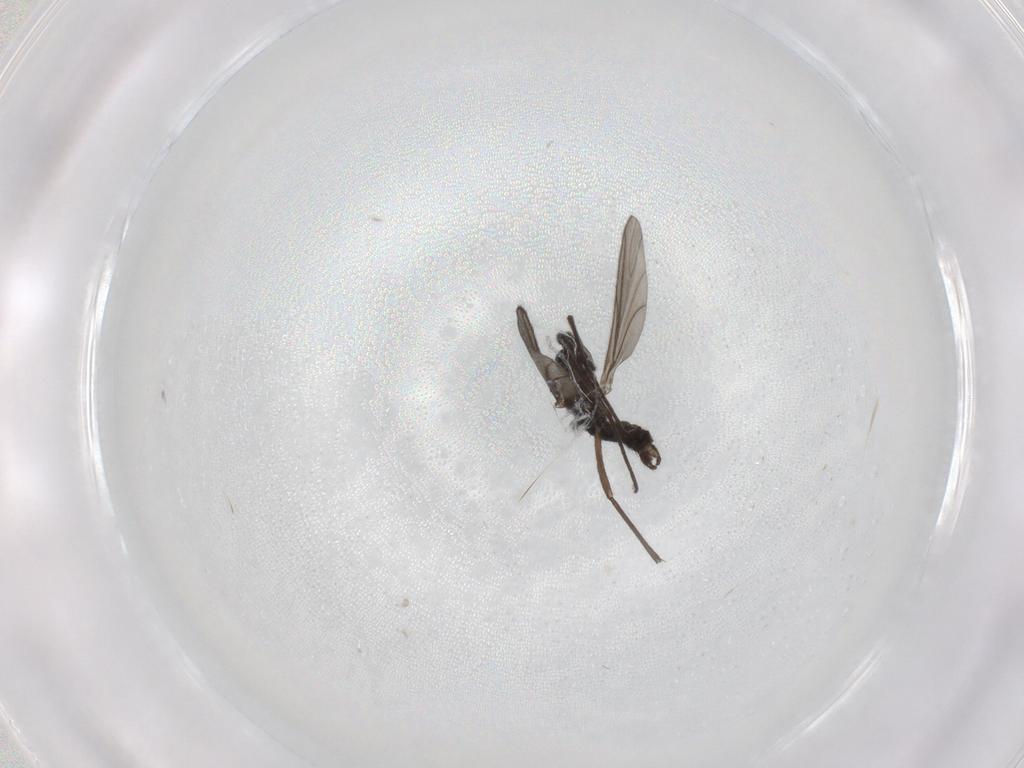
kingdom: Animalia
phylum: Arthropoda
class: Insecta
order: Diptera
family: Sciaridae
